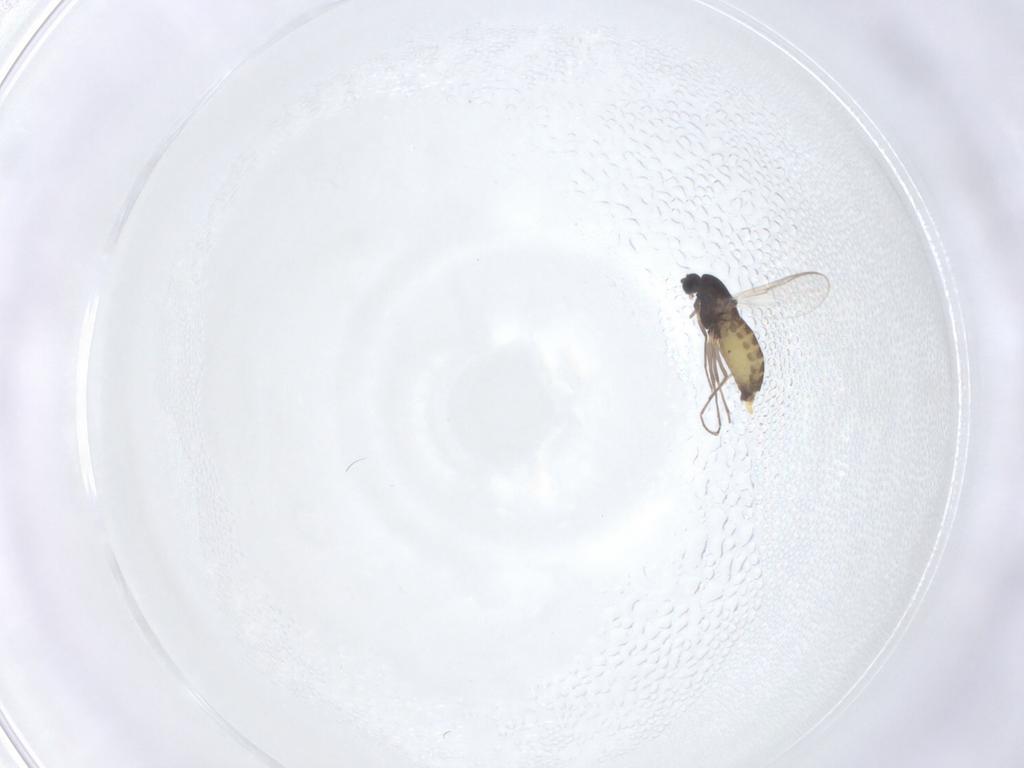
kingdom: Animalia
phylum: Arthropoda
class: Insecta
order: Diptera
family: Chironomidae
